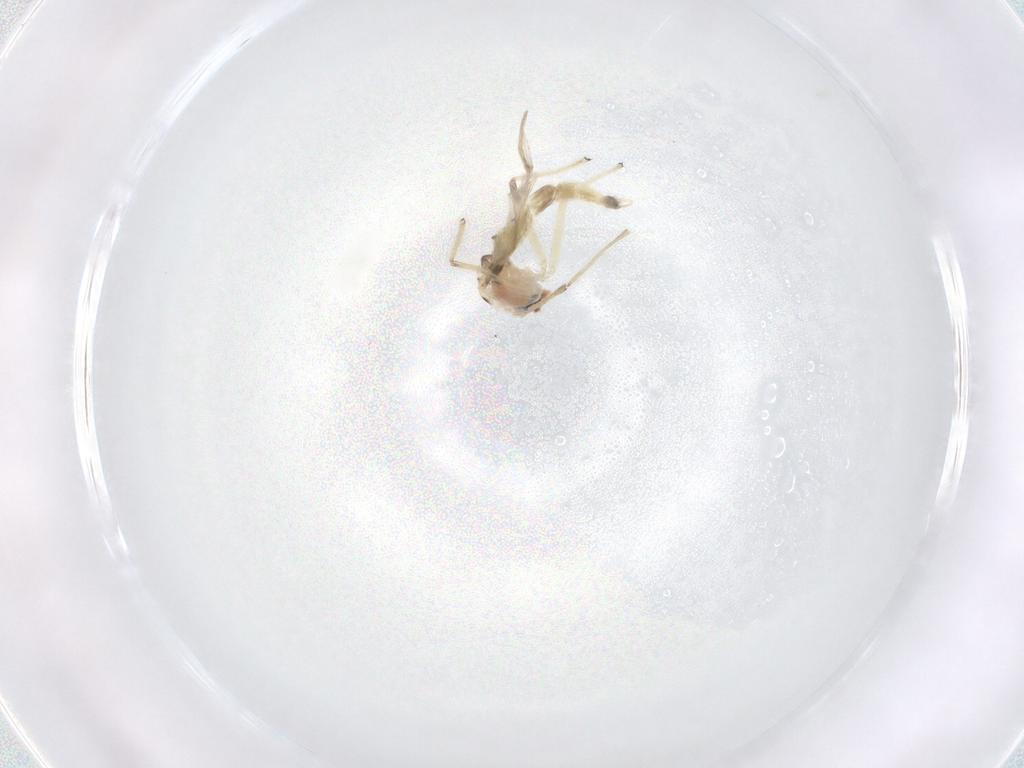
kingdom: Animalia
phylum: Arthropoda
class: Insecta
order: Diptera
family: Chironomidae
